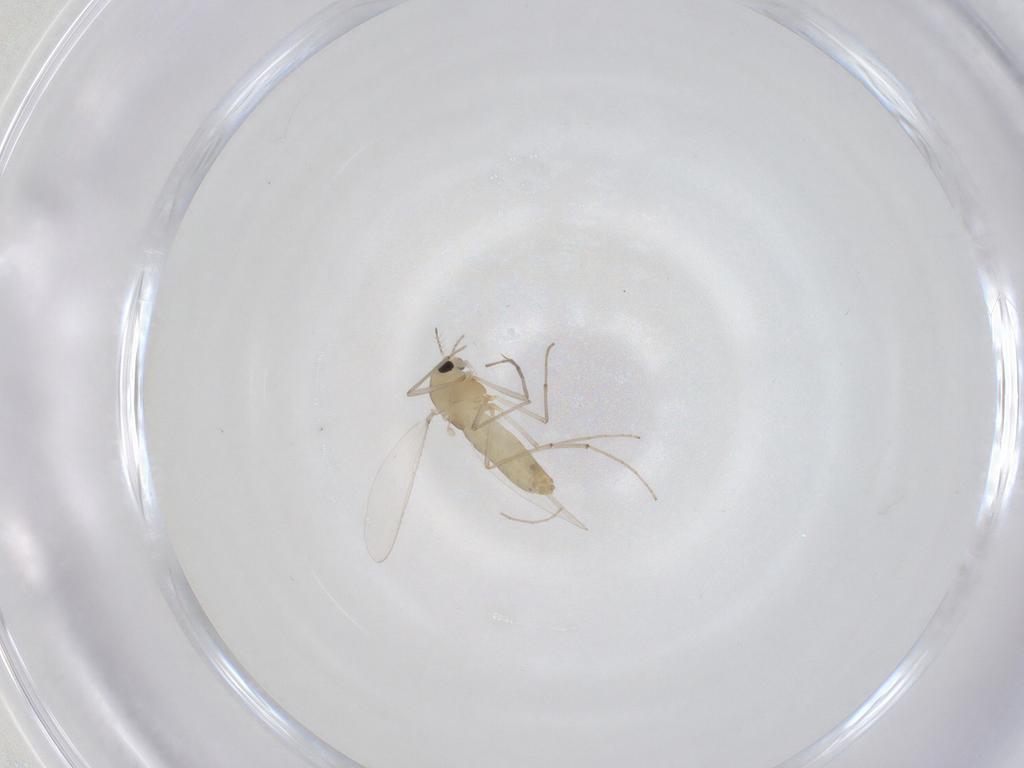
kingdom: Animalia
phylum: Arthropoda
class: Insecta
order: Diptera
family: Chironomidae
